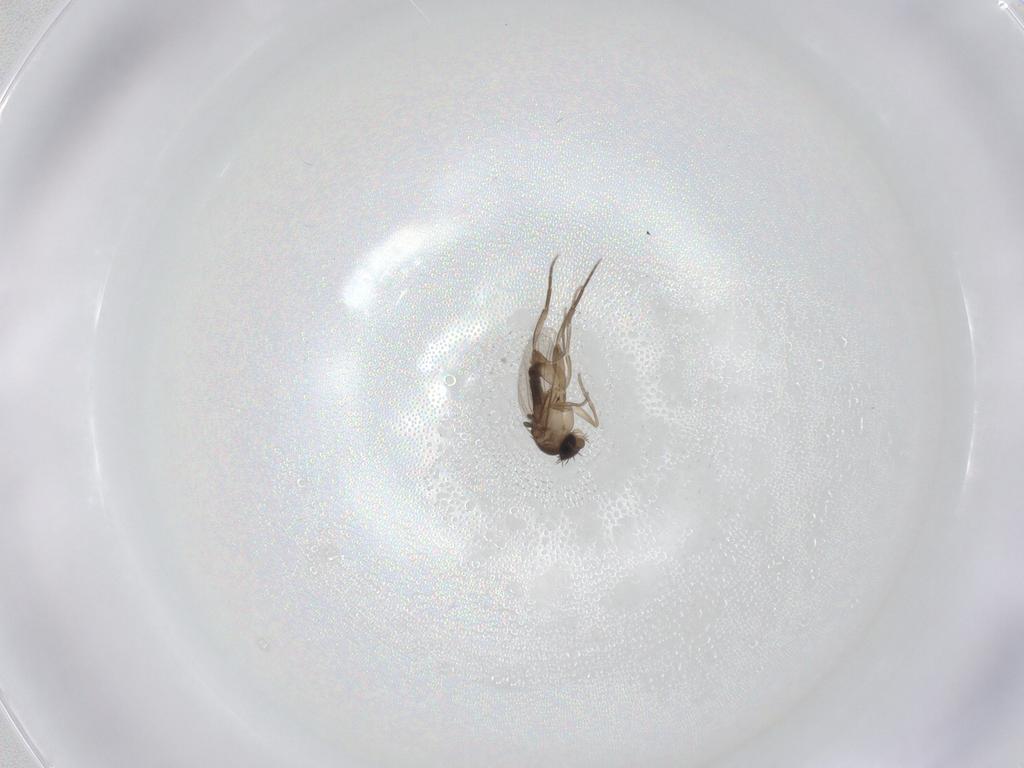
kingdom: Animalia
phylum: Arthropoda
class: Insecta
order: Diptera
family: Phoridae
